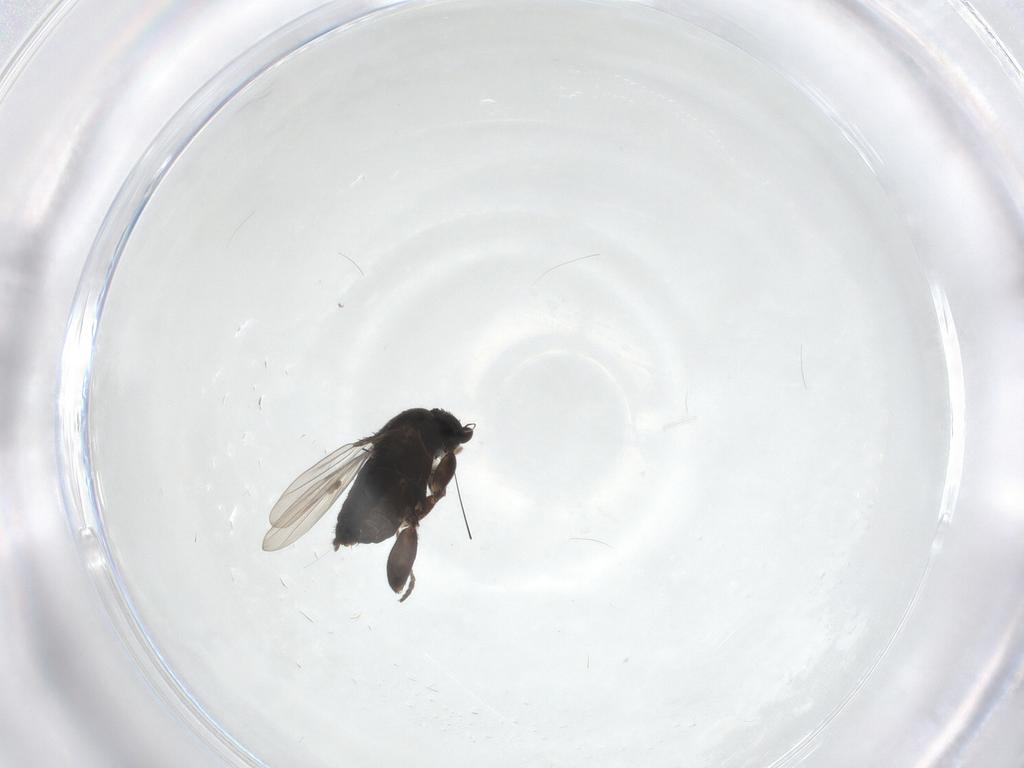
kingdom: Animalia
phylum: Arthropoda
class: Insecta
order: Diptera
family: Phoridae
